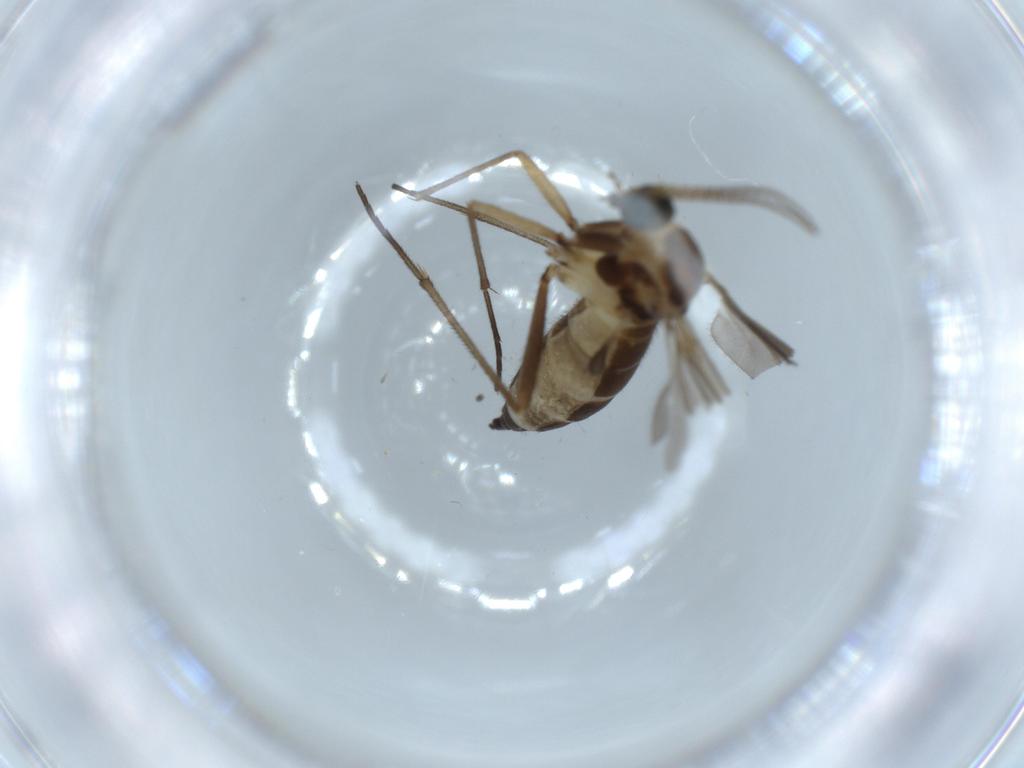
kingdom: Animalia
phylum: Arthropoda
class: Insecta
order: Diptera
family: Sciaridae
